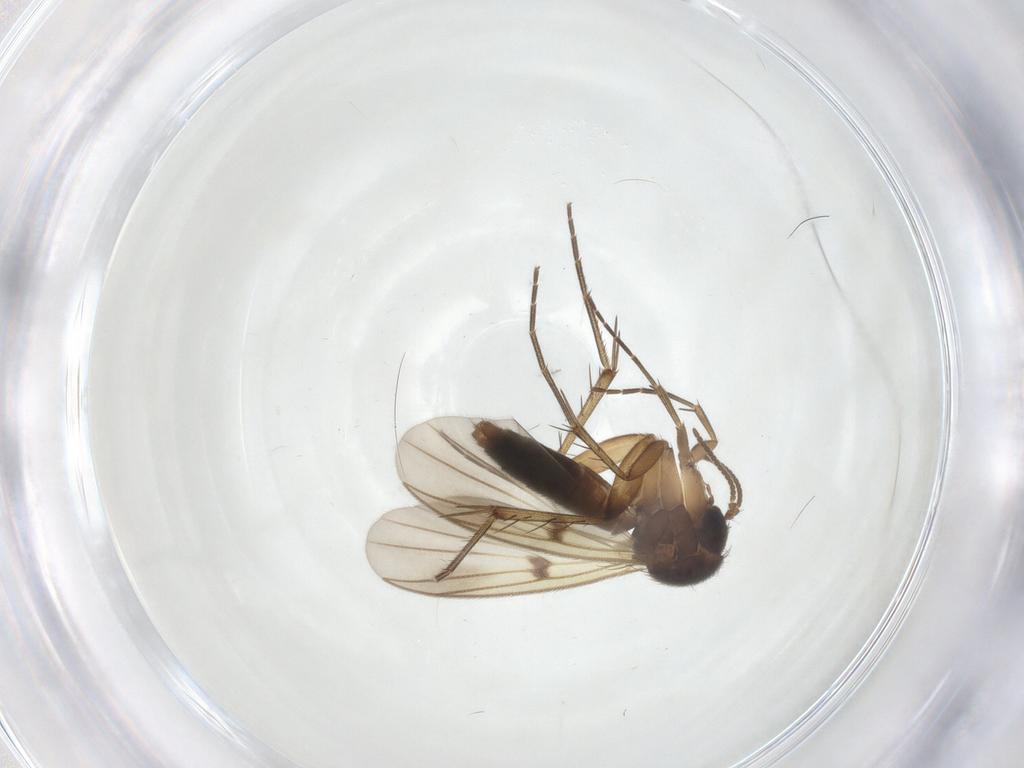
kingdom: Animalia
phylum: Arthropoda
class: Insecta
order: Diptera
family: Mycetophilidae
